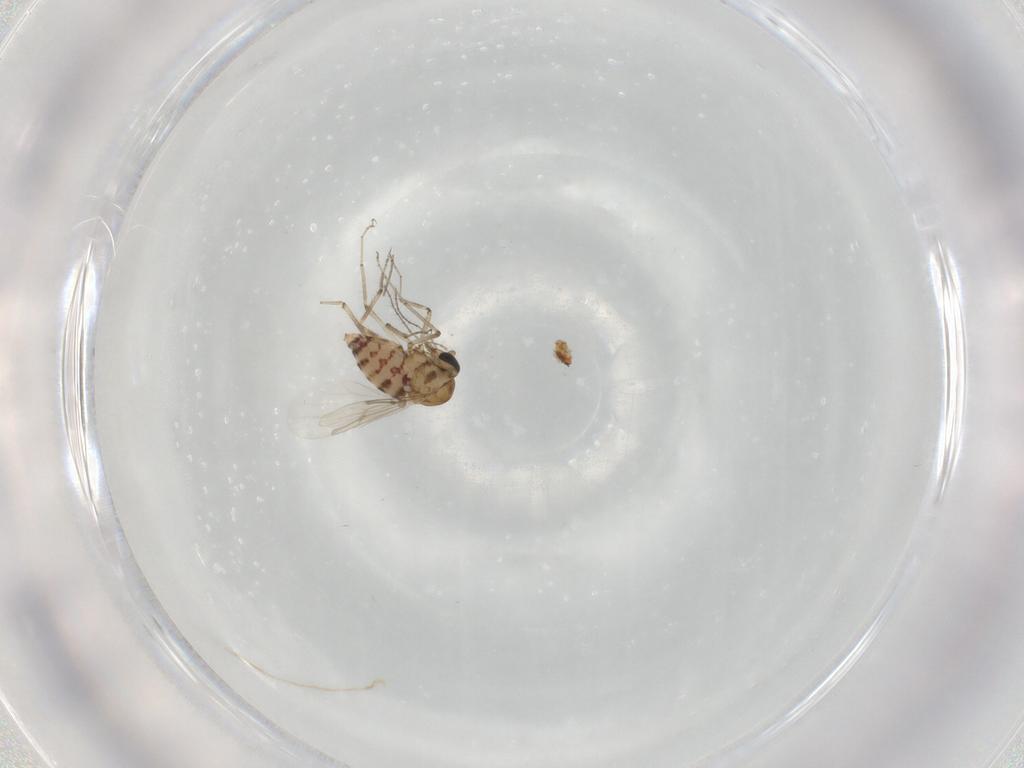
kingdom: Animalia
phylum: Arthropoda
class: Insecta
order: Diptera
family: Ceratopogonidae
